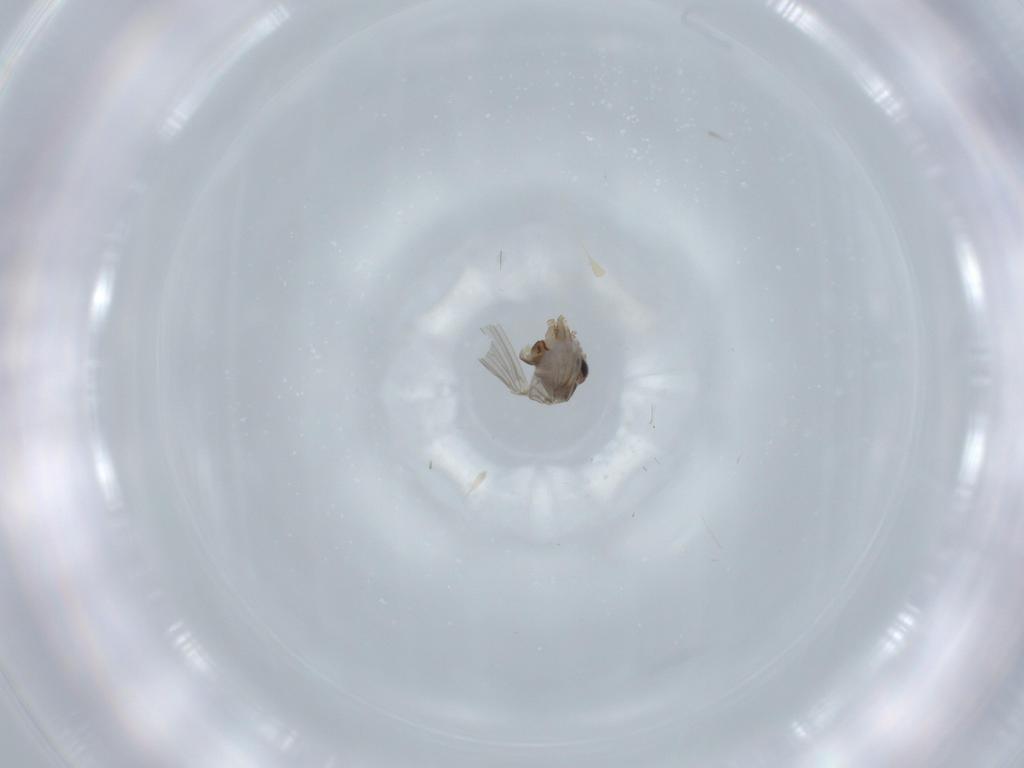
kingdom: Animalia
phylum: Arthropoda
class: Insecta
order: Diptera
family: Psychodidae
